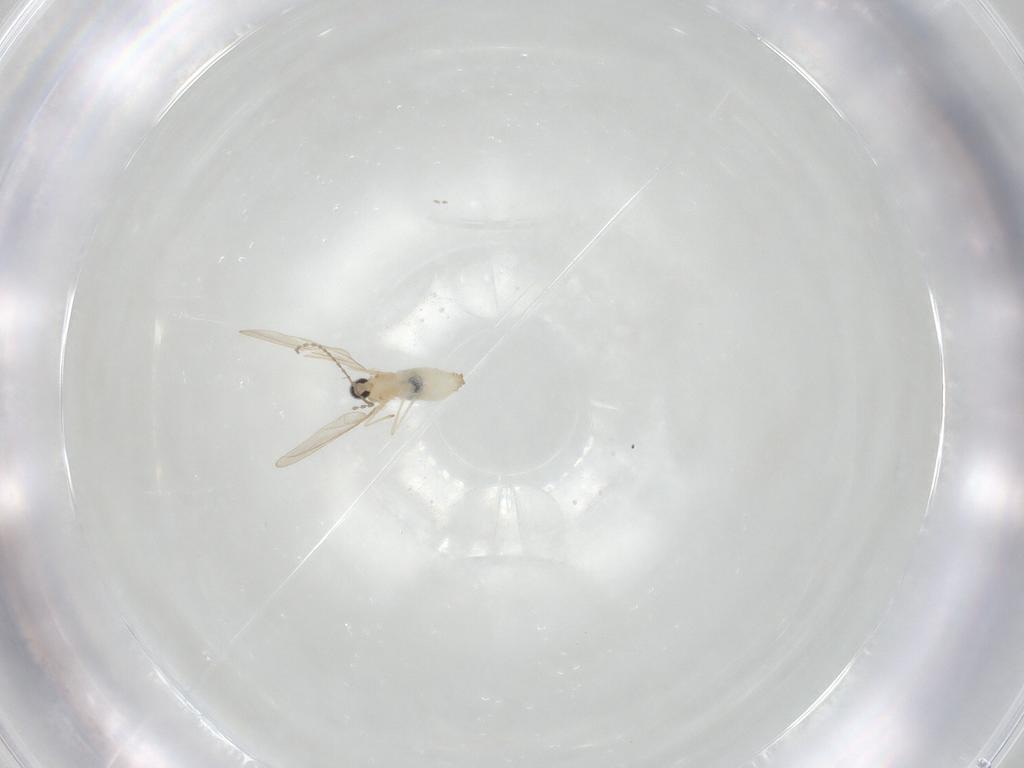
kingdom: Animalia
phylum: Arthropoda
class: Insecta
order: Diptera
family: Cecidomyiidae
